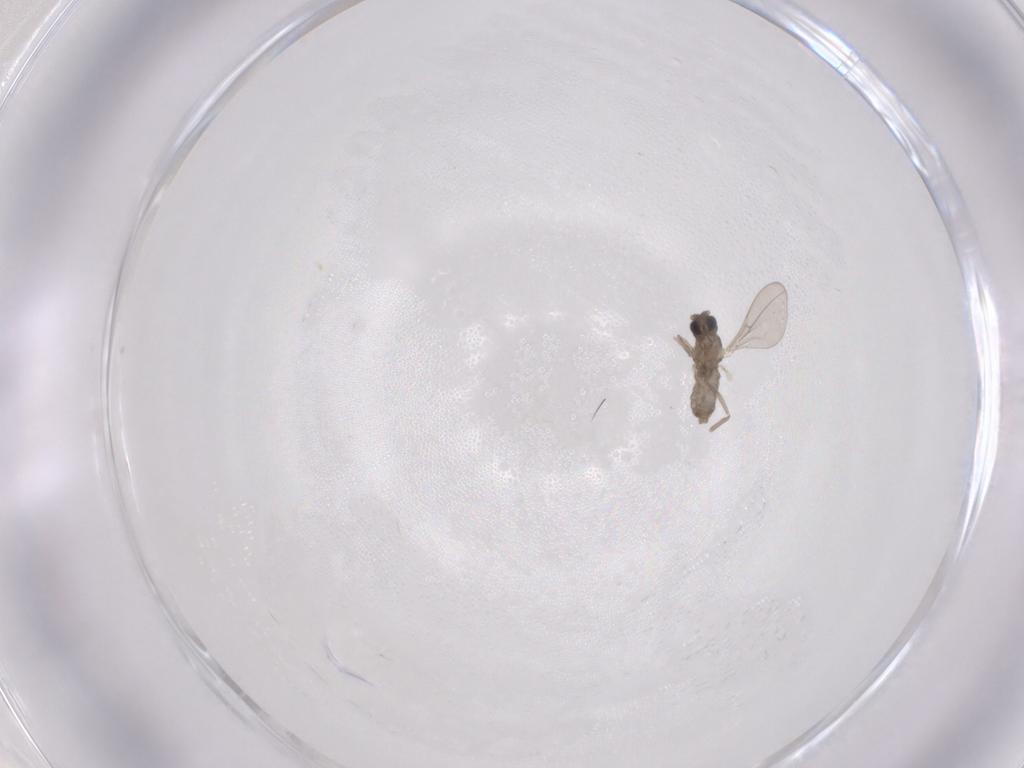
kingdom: Animalia
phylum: Arthropoda
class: Insecta
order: Diptera
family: Cecidomyiidae
